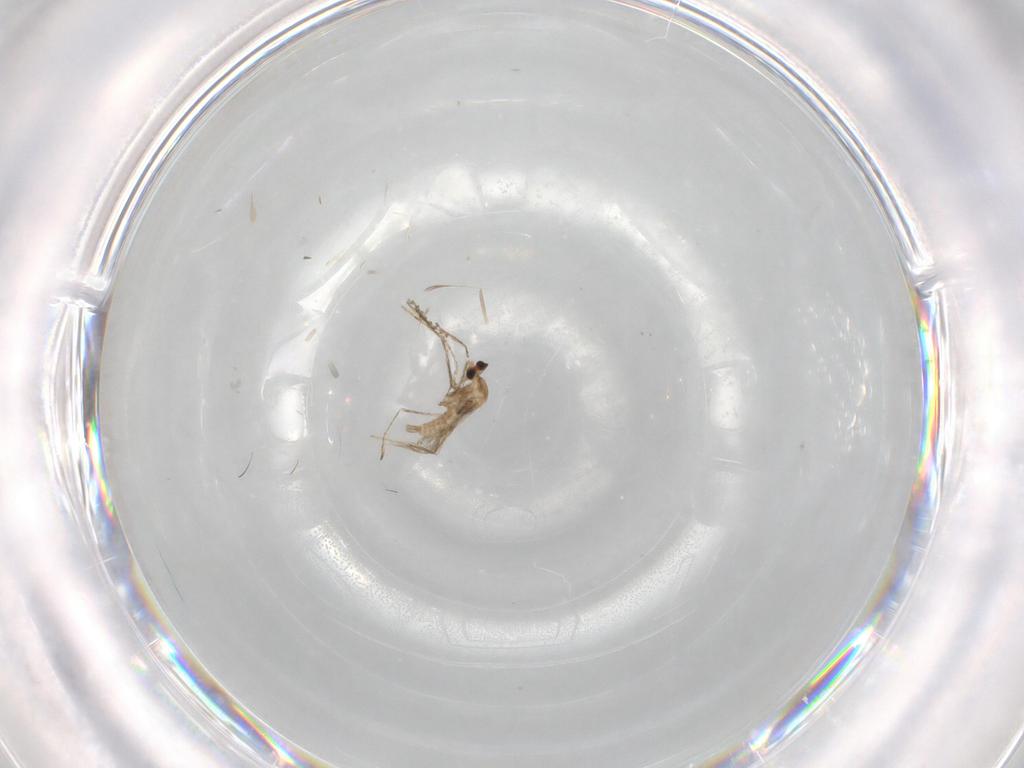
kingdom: Animalia
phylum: Arthropoda
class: Insecta
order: Diptera
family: Cecidomyiidae
